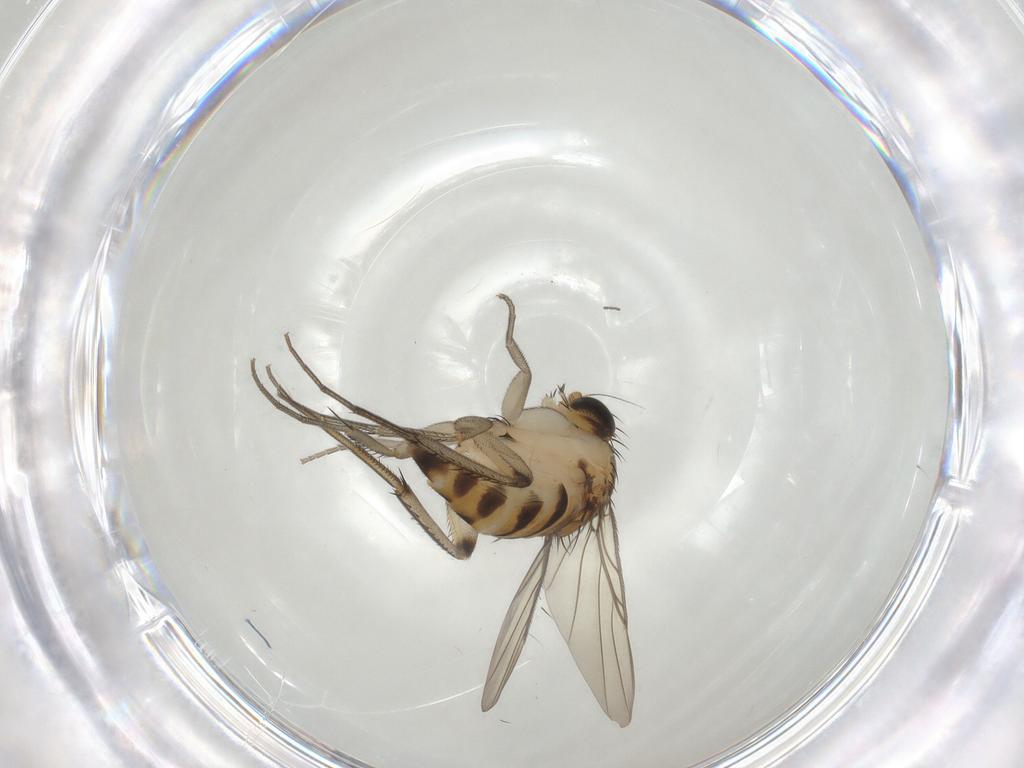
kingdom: Animalia
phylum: Arthropoda
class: Insecta
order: Diptera
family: Phoridae
